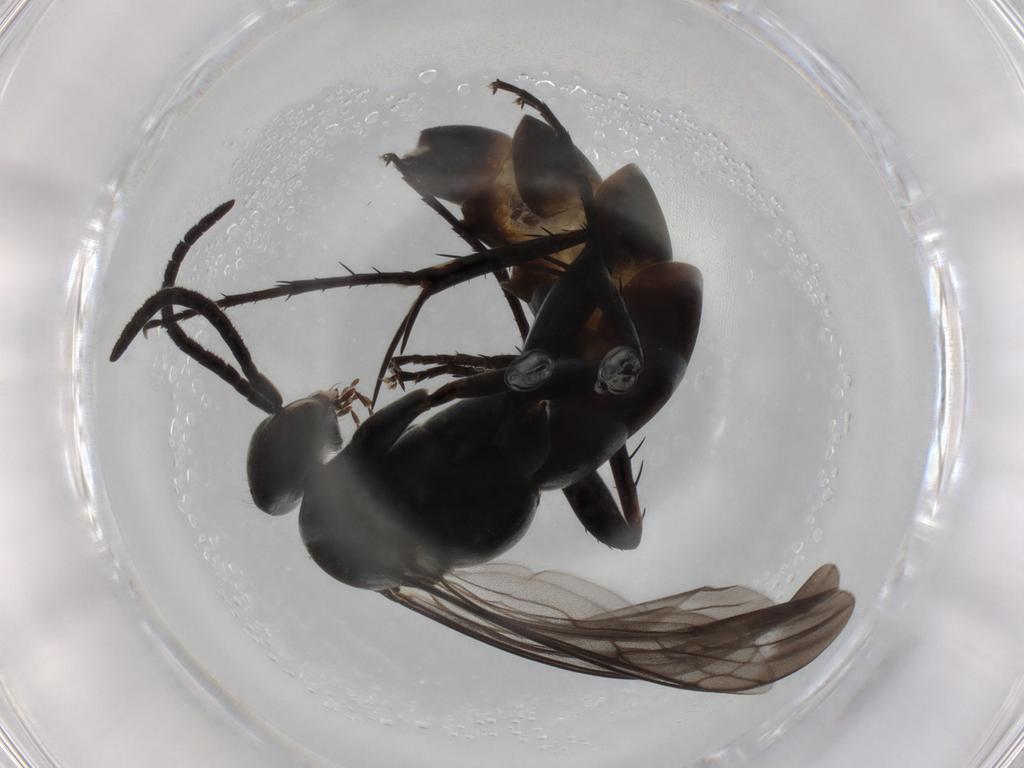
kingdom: Animalia
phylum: Arthropoda
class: Insecta
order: Hymenoptera
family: Pompilidae
